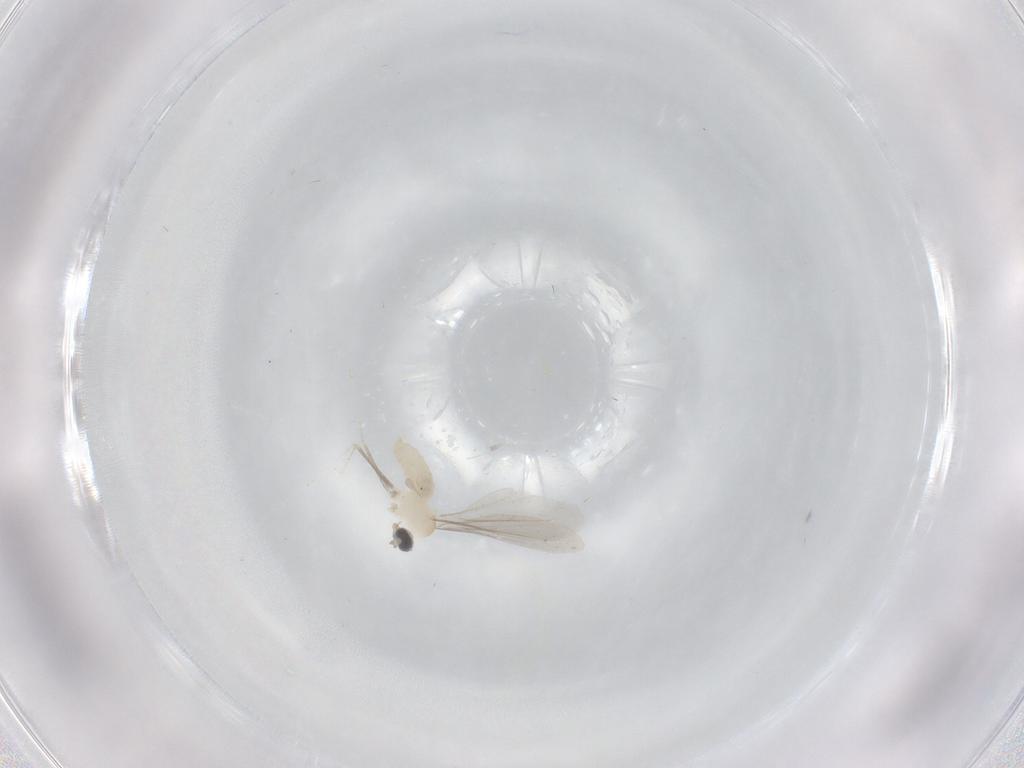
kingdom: Animalia
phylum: Arthropoda
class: Insecta
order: Diptera
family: Cecidomyiidae
